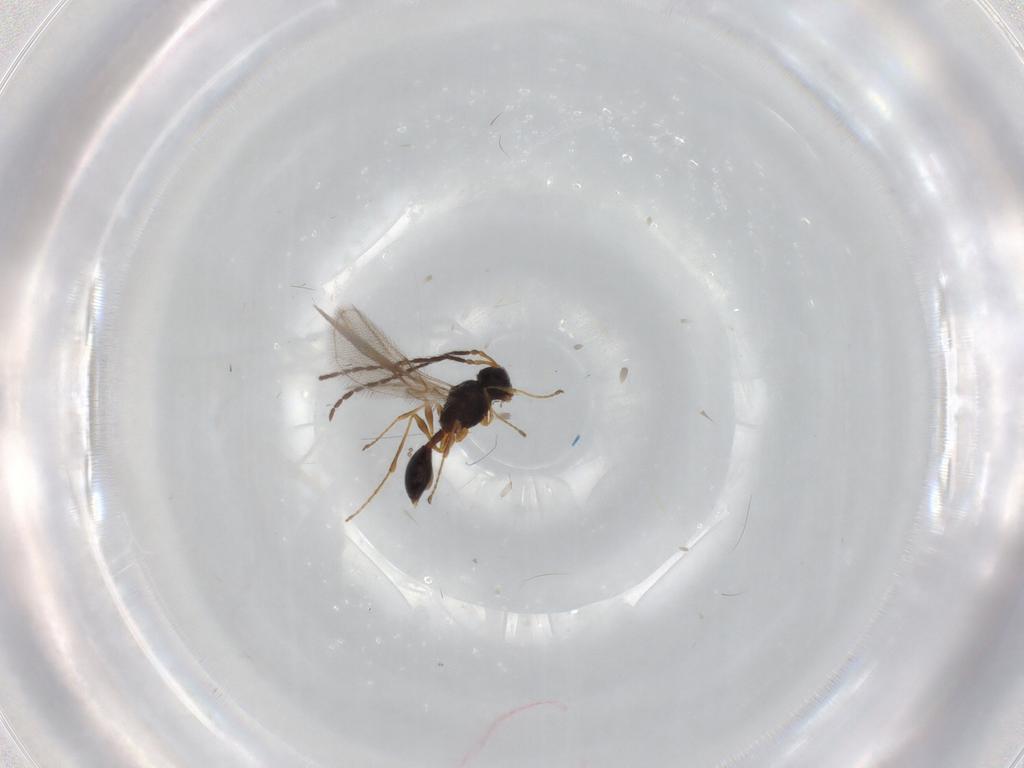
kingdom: Animalia
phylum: Arthropoda
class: Insecta
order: Hymenoptera
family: Diapriidae
